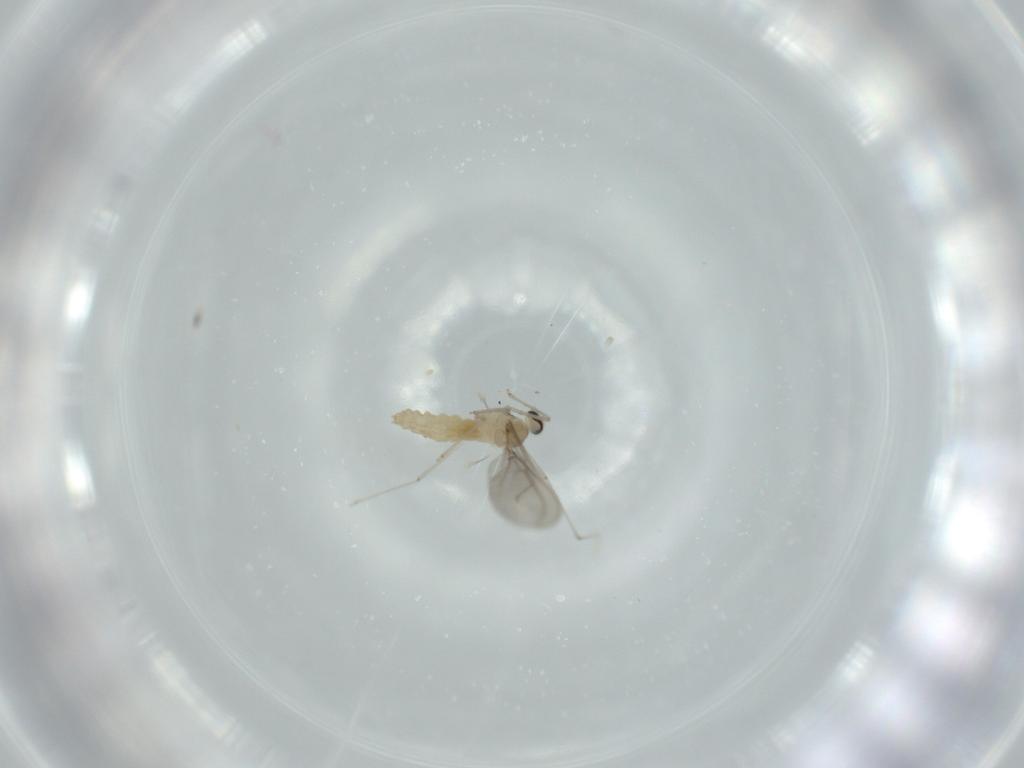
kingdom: Animalia
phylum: Arthropoda
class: Insecta
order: Diptera
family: Cecidomyiidae
